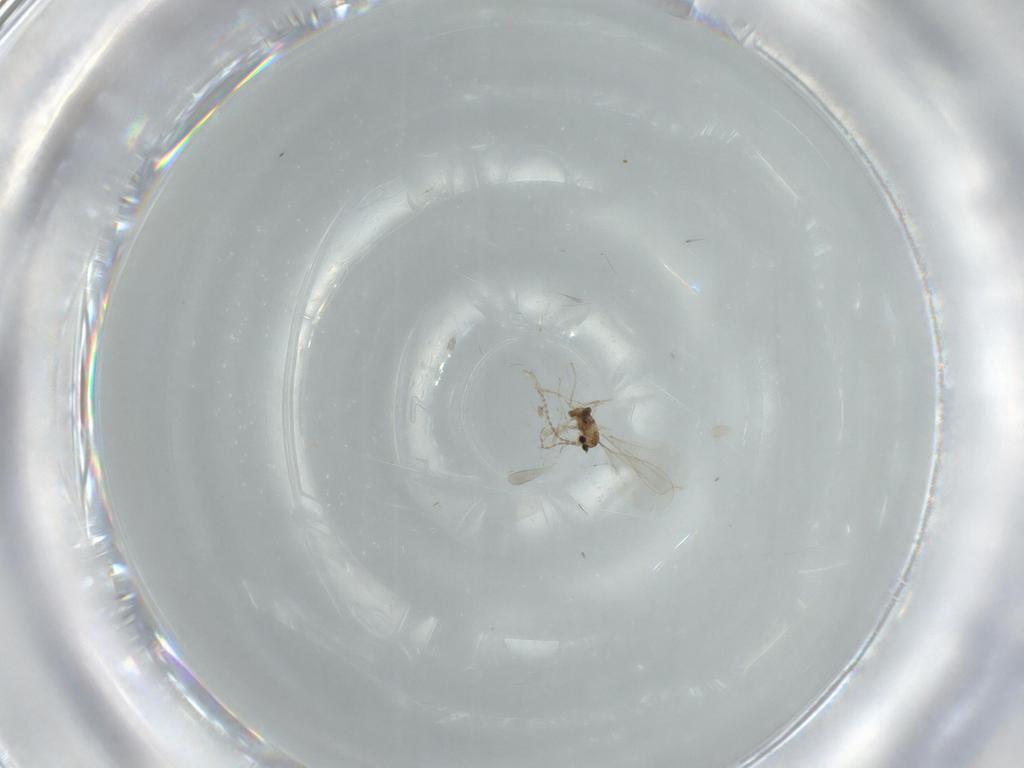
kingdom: Animalia
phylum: Arthropoda
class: Insecta
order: Diptera
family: Cecidomyiidae
